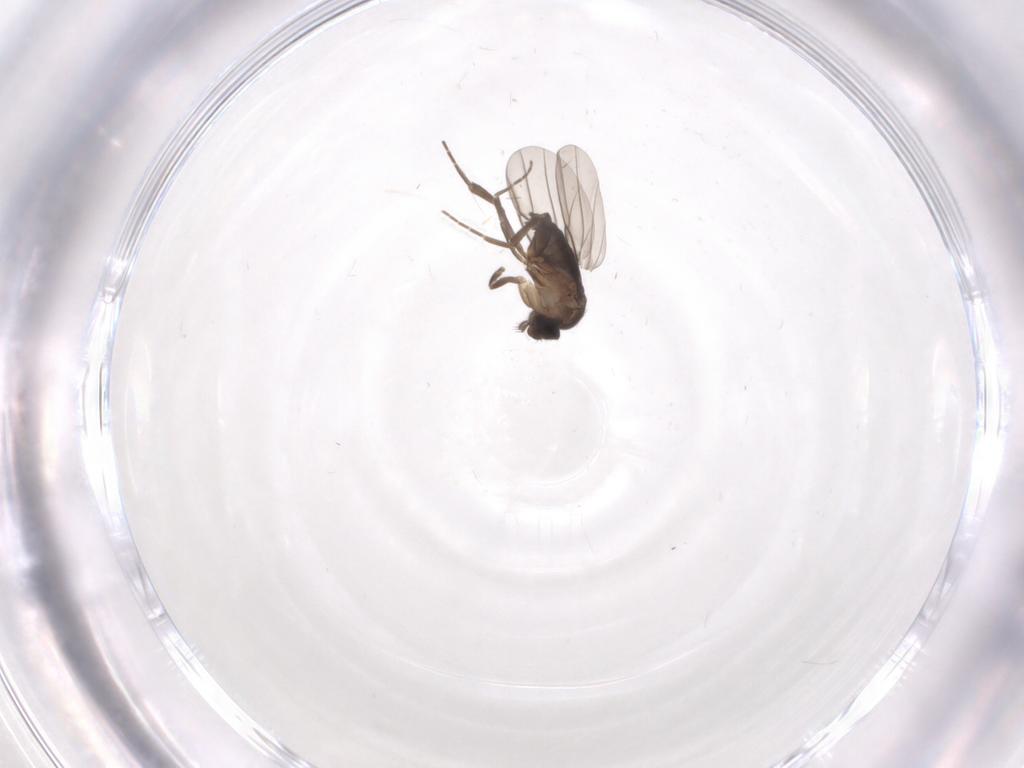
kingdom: Animalia
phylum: Arthropoda
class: Insecta
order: Diptera
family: Phoridae
